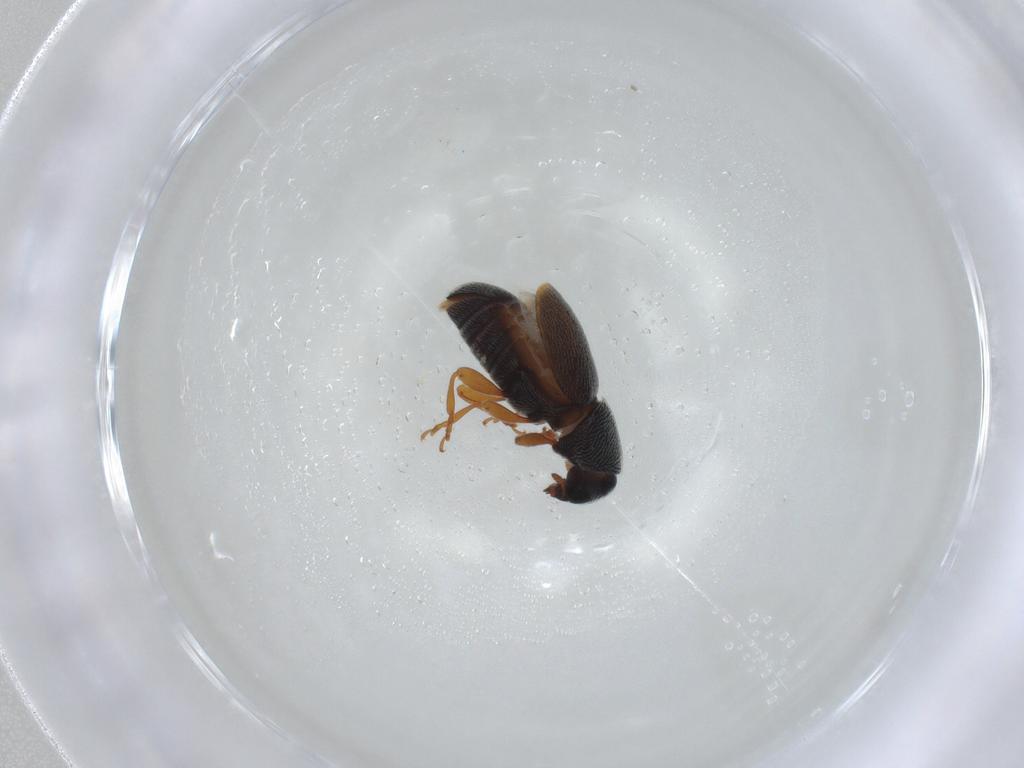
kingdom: Animalia
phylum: Arthropoda
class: Insecta
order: Coleoptera
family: Anthribidae
